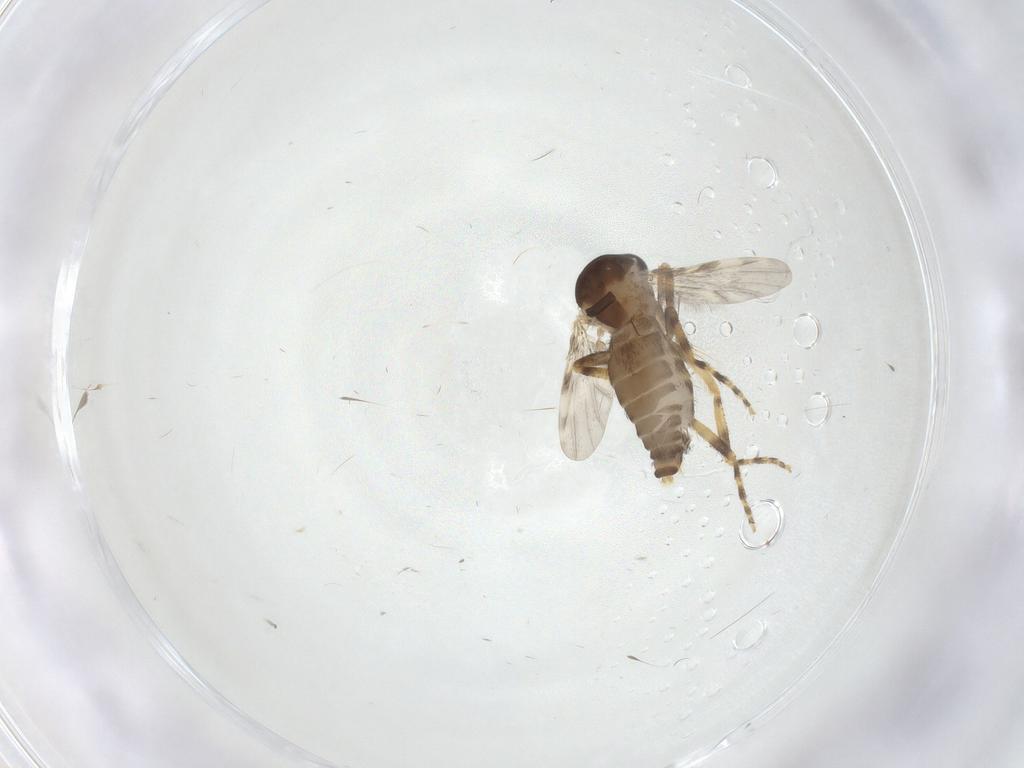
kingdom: Animalia
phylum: Arthropoda
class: Insecta
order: Diptera
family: Ceratopogonidae
